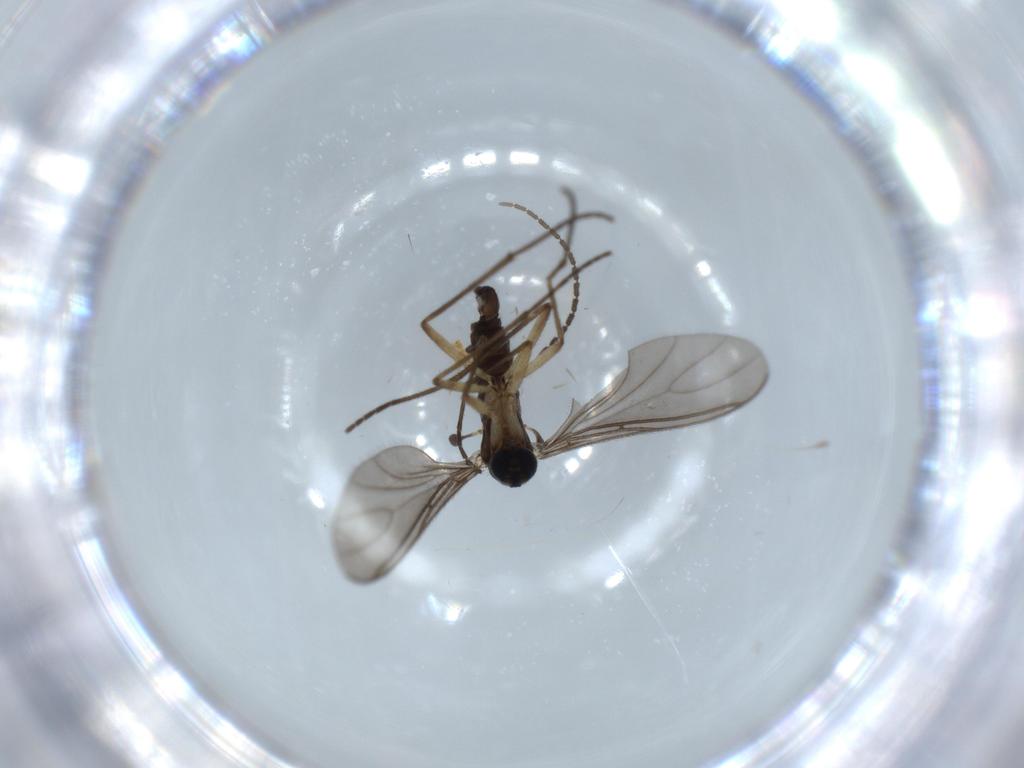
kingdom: Animalia
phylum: Arthropoda
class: Insecta
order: Diptera
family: Sciaridae
